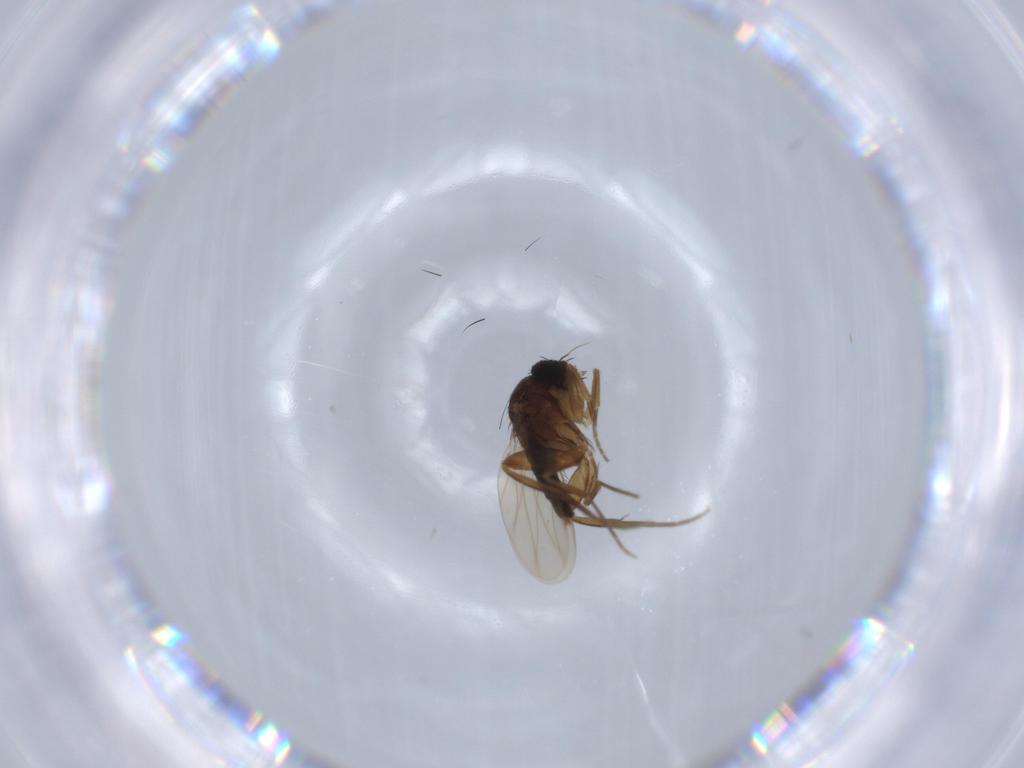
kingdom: Animalia
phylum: Arthropoda
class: Insecta
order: Diptera
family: Phoridae
